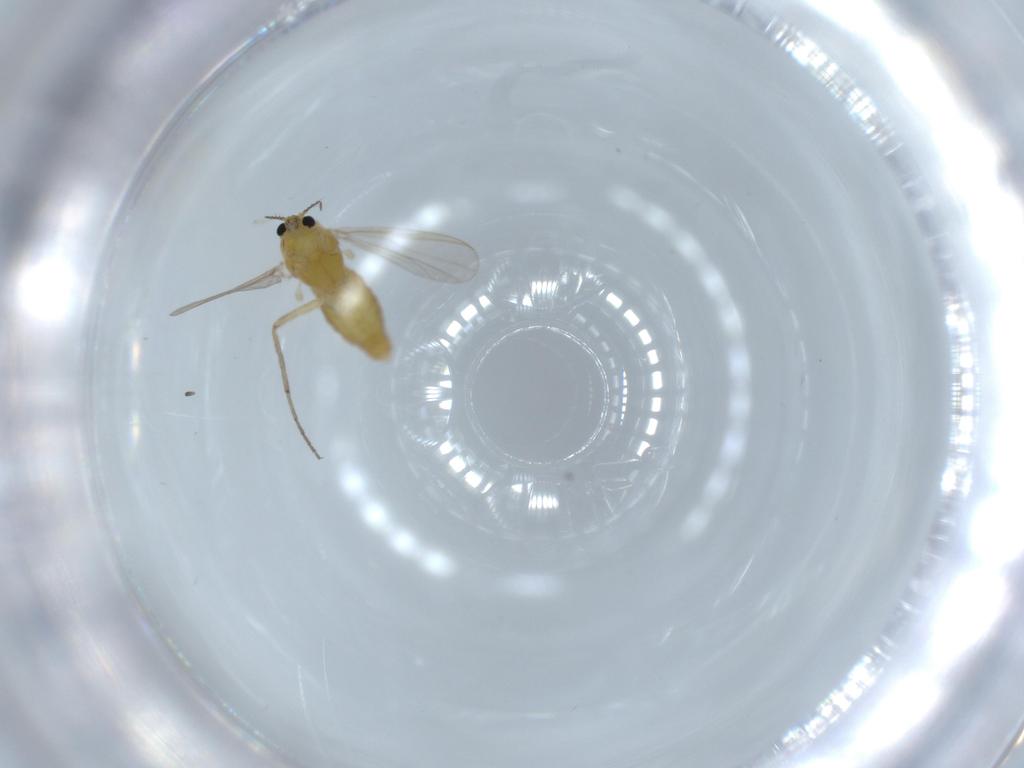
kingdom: Animalia
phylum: Arthropoda
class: Insecta
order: Diptera
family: Chironomidae
